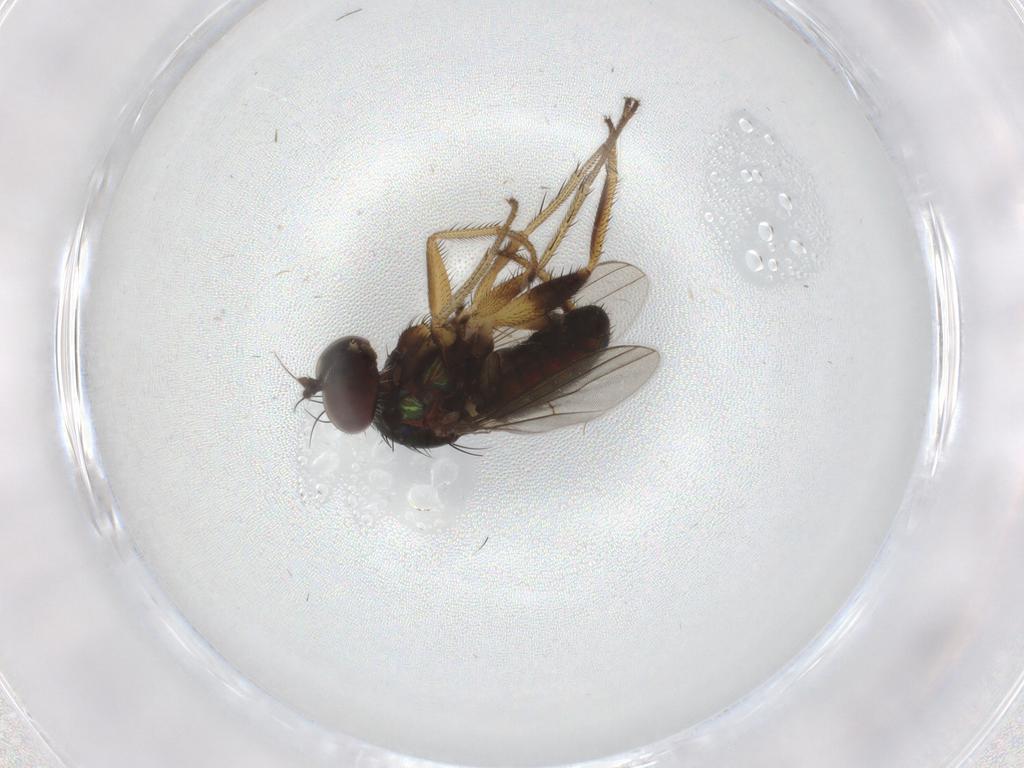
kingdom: Animalia
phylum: Arthropoda
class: Insecta
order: Diptera
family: Dolichopodidae
